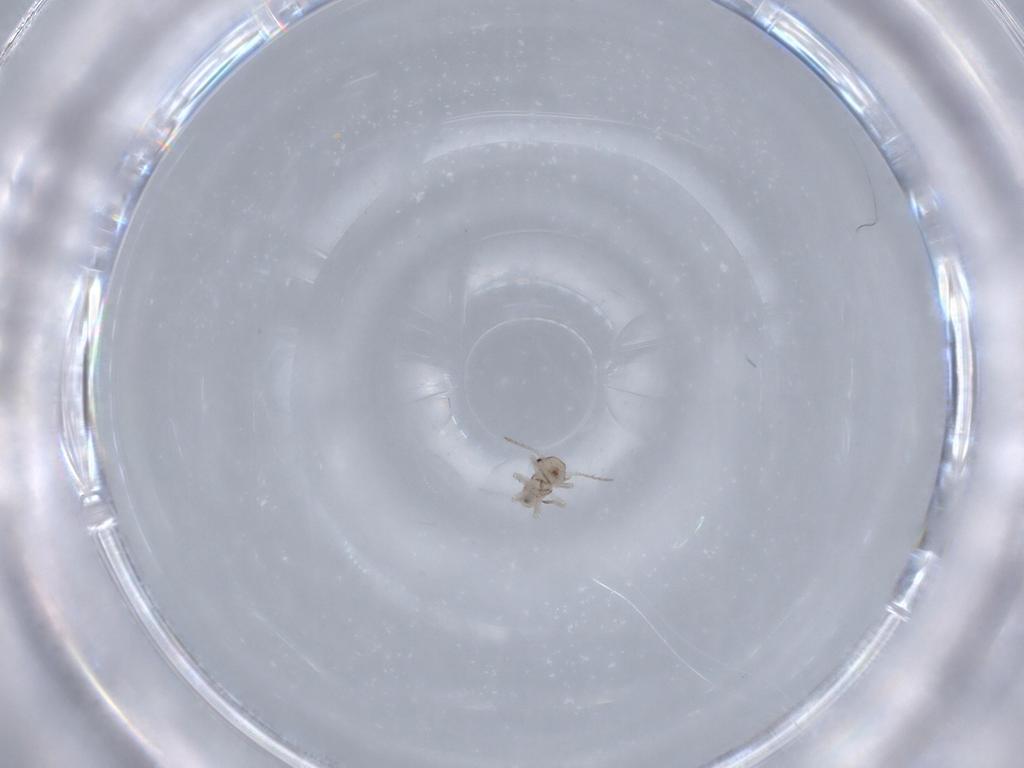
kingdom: Animalia
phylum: Arthropoda
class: Insecta
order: Psocodea
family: Psocidae
